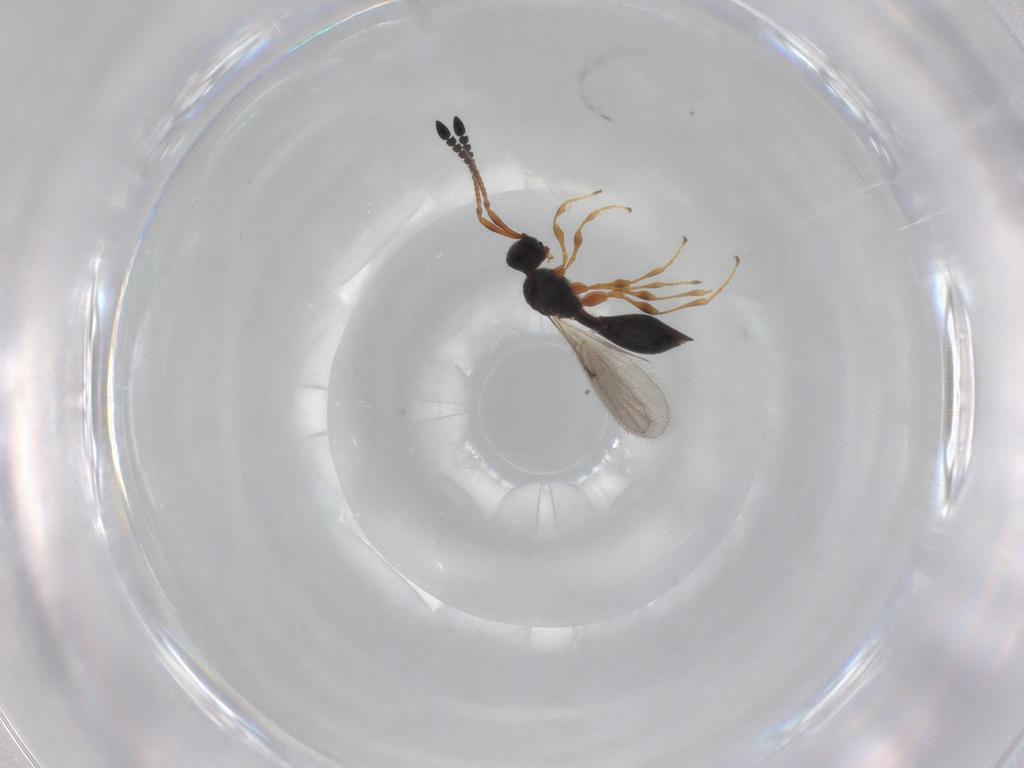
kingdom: Animalia
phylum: Arthropoda
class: Insecta
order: Hymenoptera
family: Diapriidae
